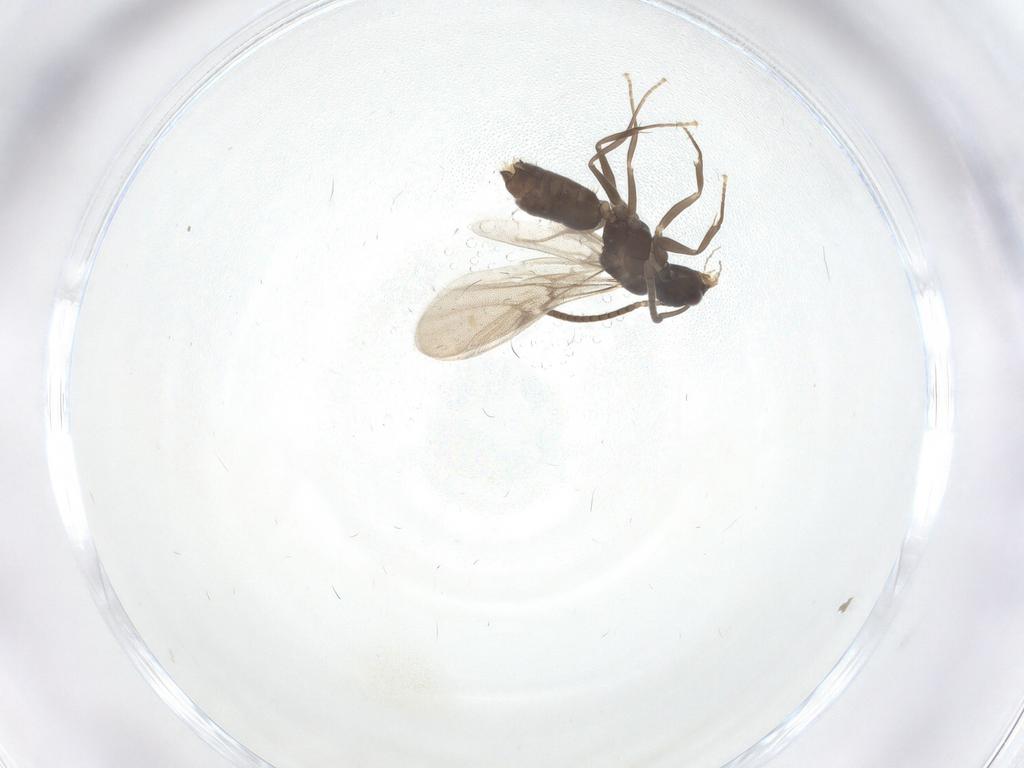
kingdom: Animalia
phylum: Arthropoda
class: Insecta
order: Hymenoptera
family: Formicidae
